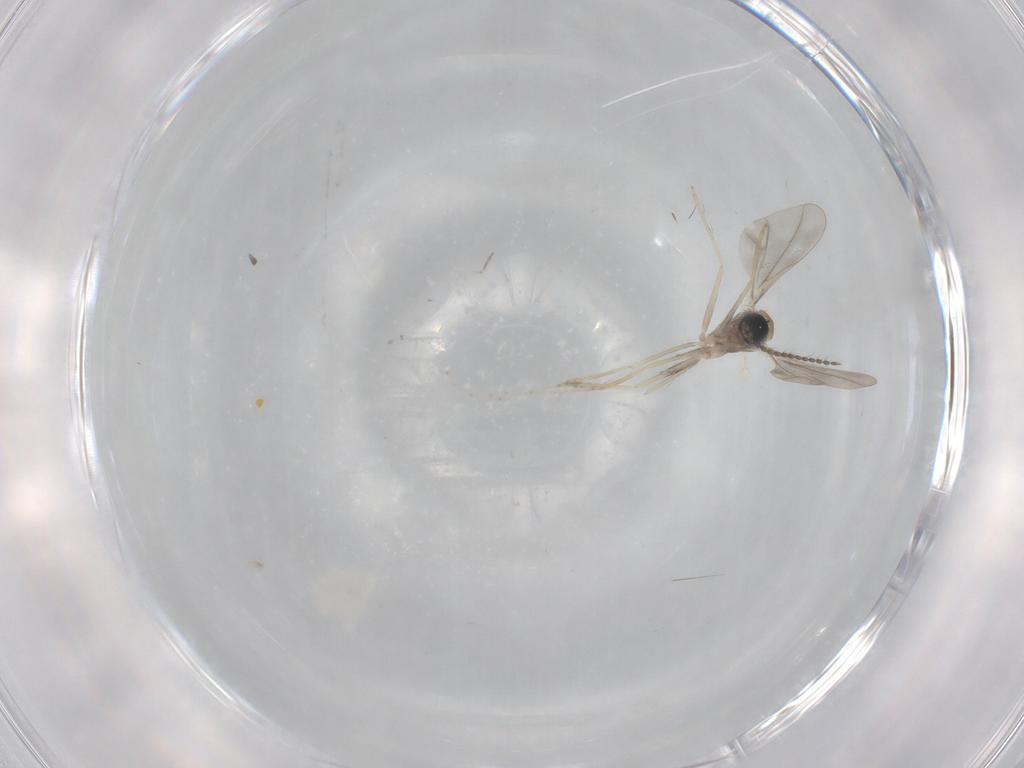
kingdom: Animalia
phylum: Arthropoda
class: Insecta
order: Diptera
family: Cecidomyiidae
